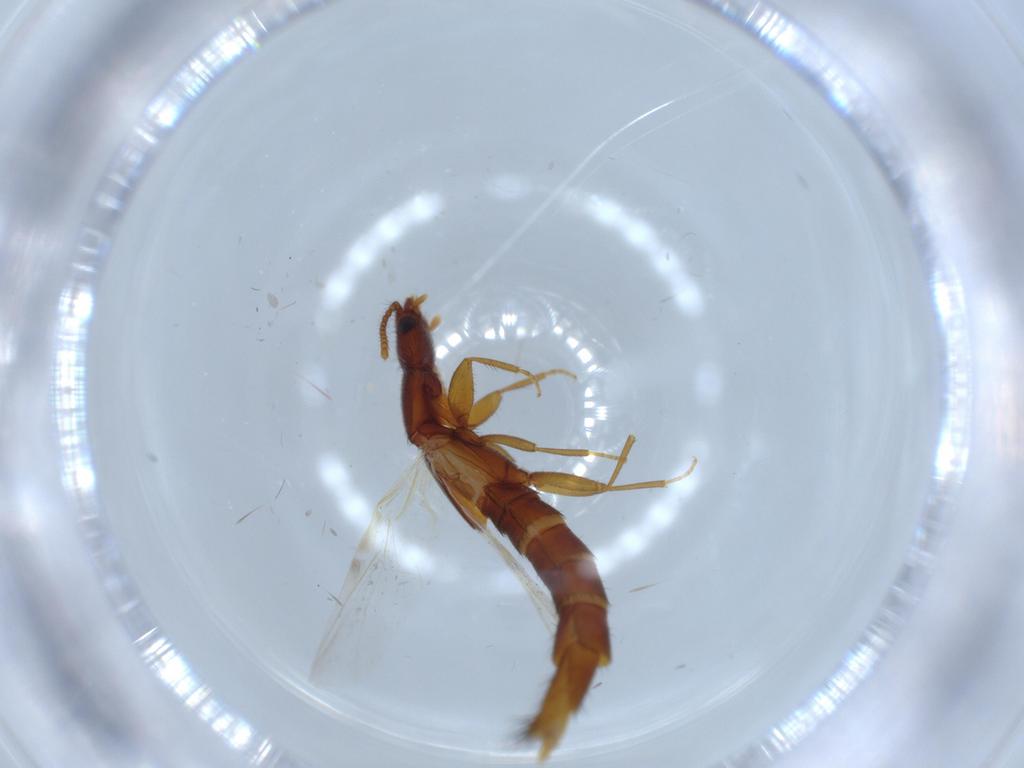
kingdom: Animalia
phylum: Arthropoda
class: Insecta
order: Coleoptera
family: Staphylinidae
